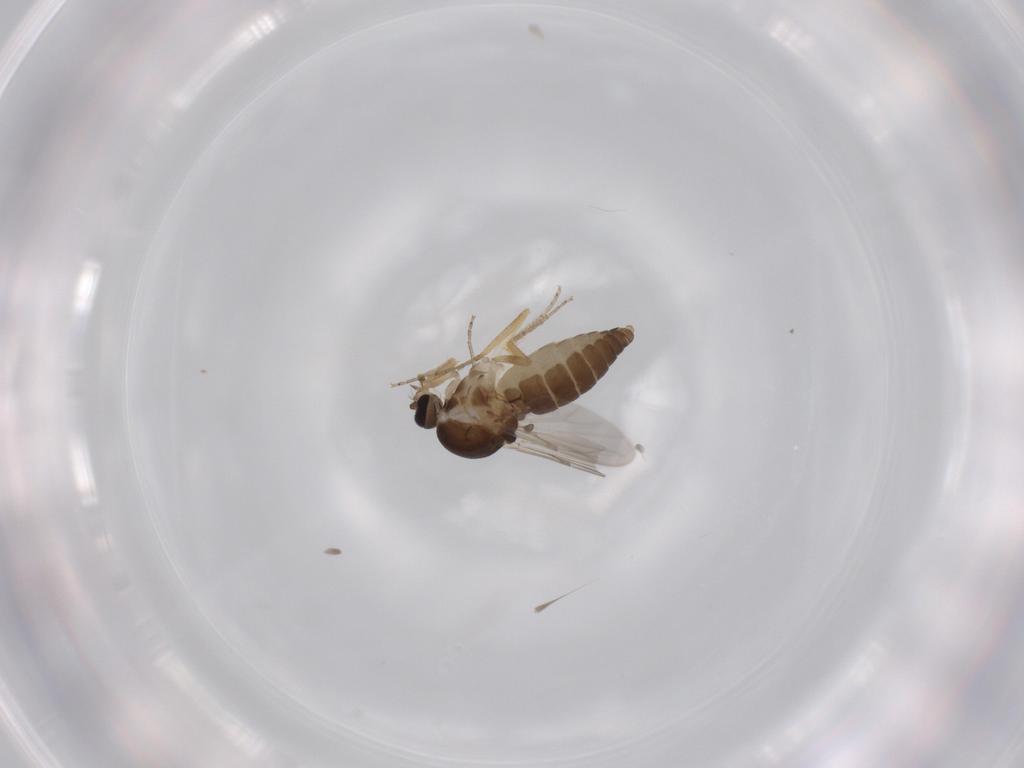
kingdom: Animalia
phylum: Arthropoda
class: Insecta
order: Diptera
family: Ceratopogonidae
